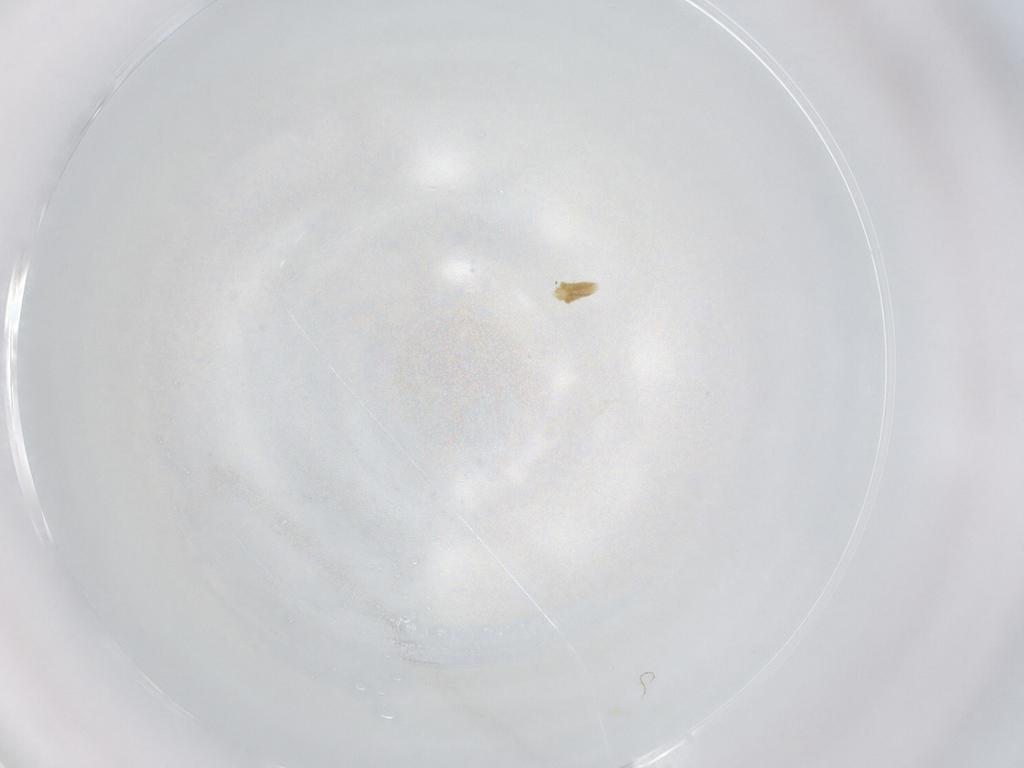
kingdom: Animalia
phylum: Arthropoda
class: Arachnida
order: Trombidiformes
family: Eupodidae
